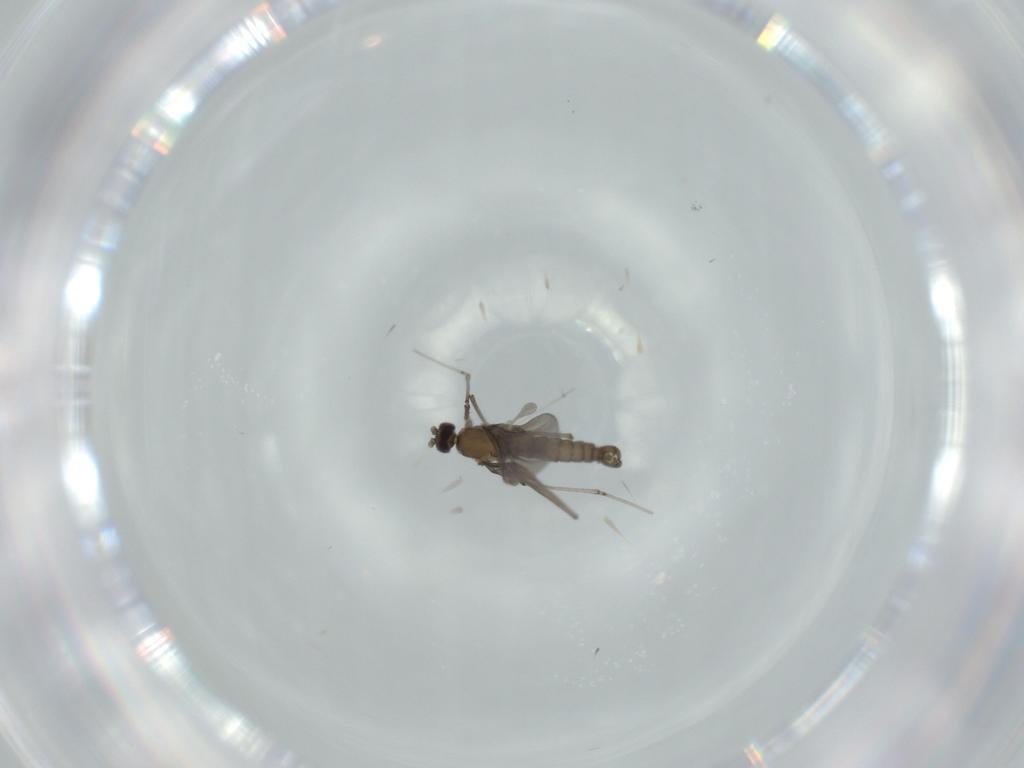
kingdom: Animalia
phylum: Arthropoda
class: Insecta
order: Diptera
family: Cecidomyiidae
